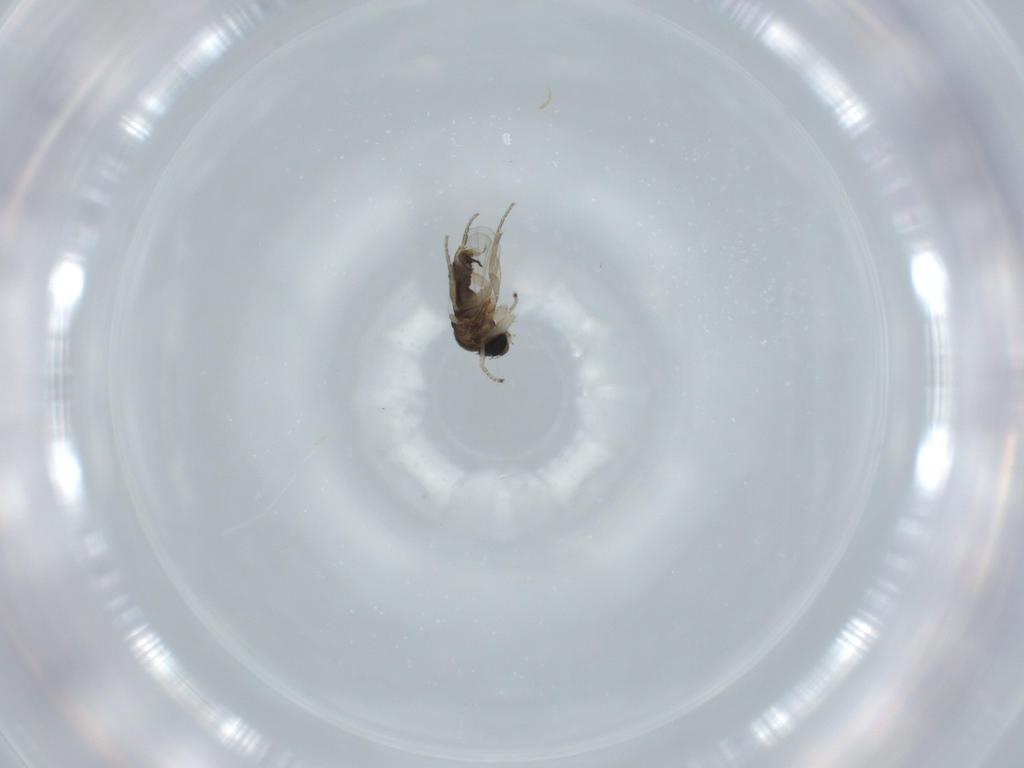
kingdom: Animalia
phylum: Arthropoda
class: Insecta
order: Diptera
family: Phoridae
